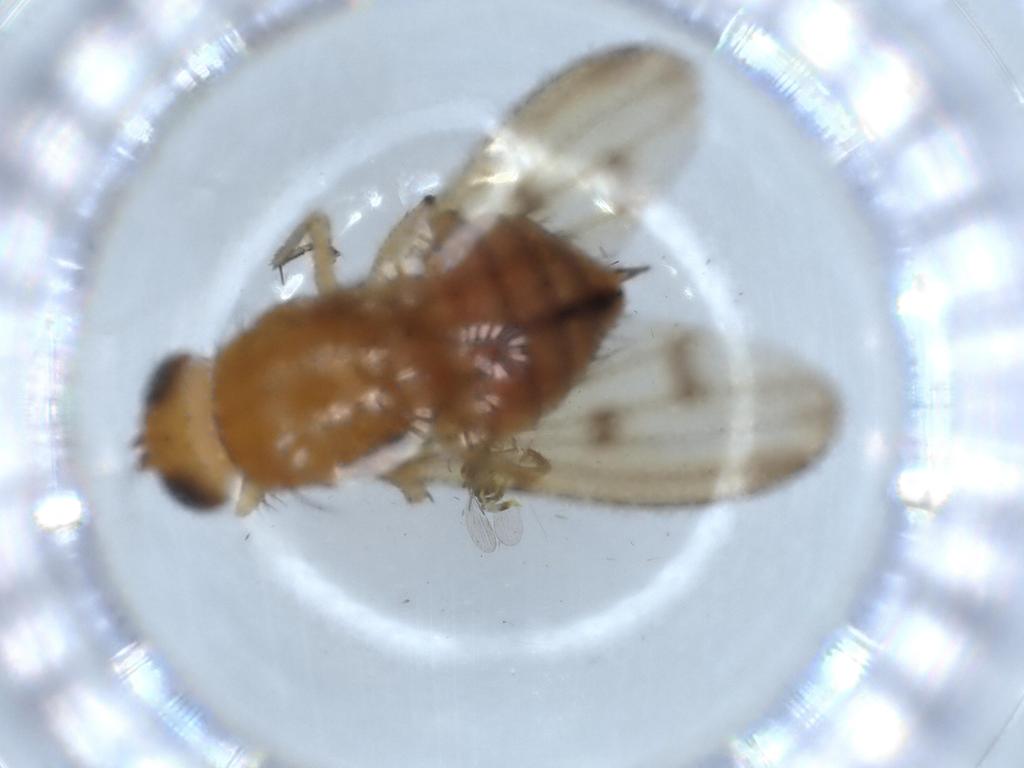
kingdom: Animalia
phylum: Arthropoda
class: Insecta
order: Diptera
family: Lauxaniidae
